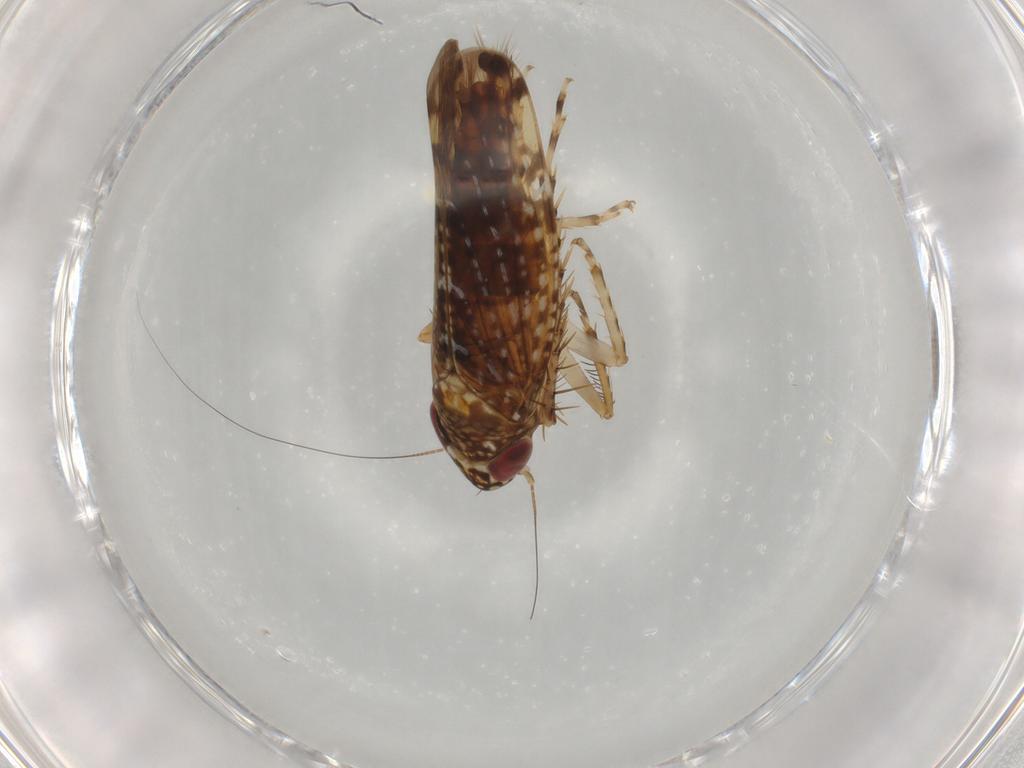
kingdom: Animalia
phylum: Arthropoda
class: Insecta
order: Hemiptera
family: Cicadellidae
